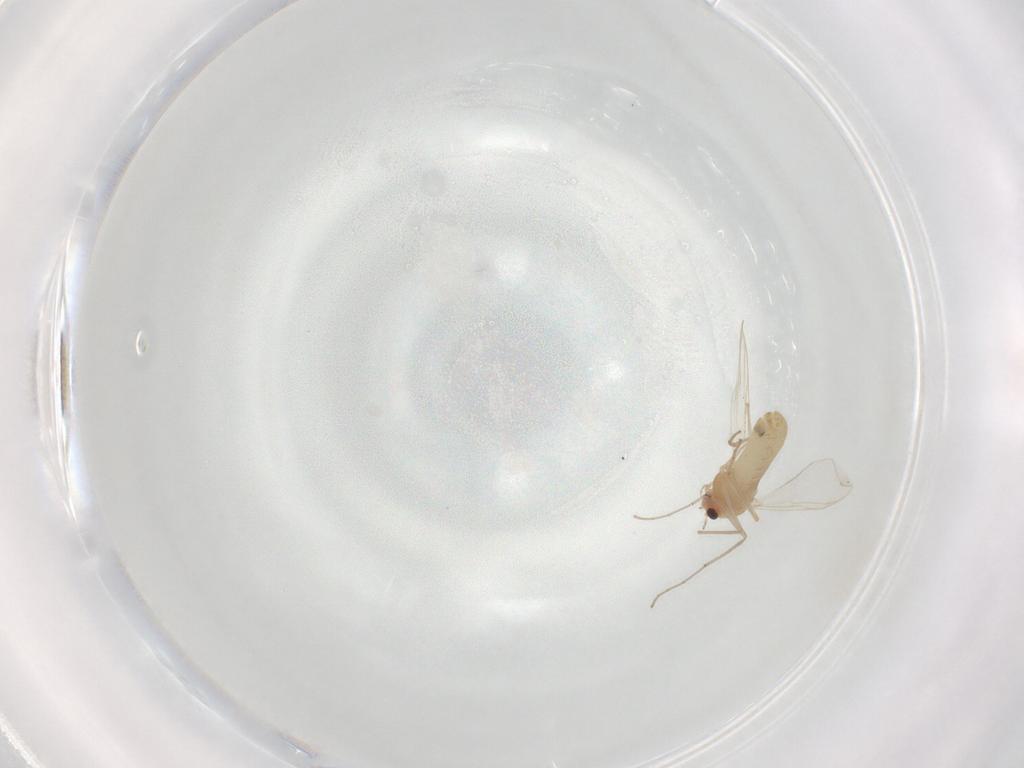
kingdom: Animalia
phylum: Arthropoda
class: Insecta
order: Diptera
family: Chironomidae
